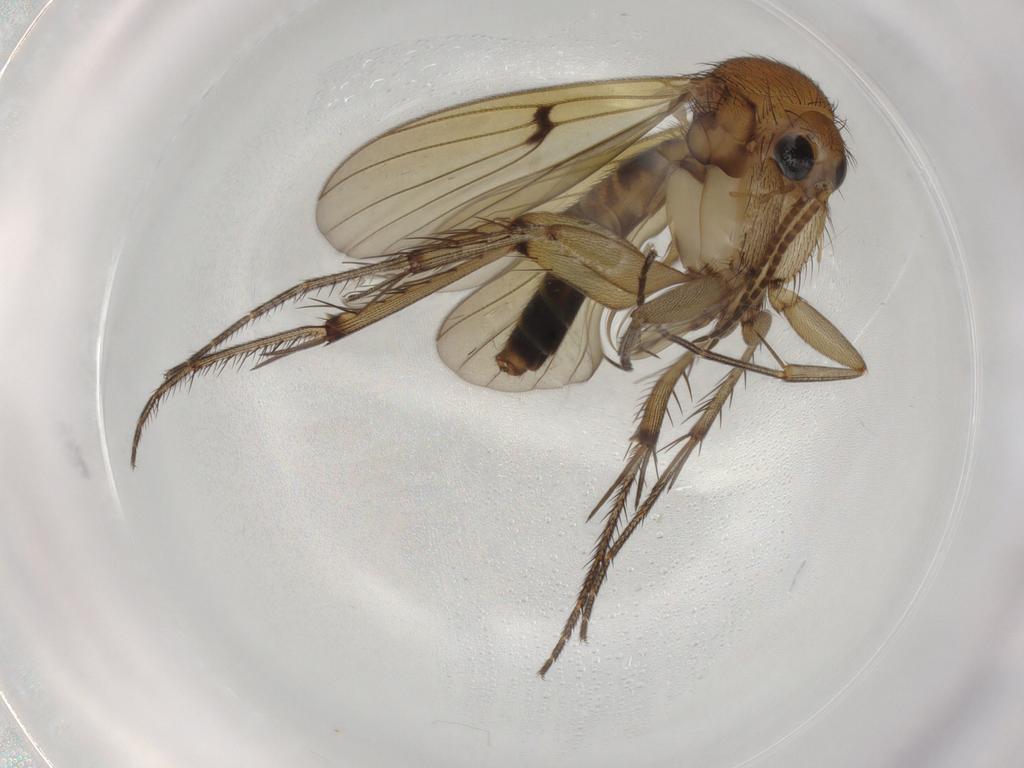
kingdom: Animalia
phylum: Arthropoda
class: Insecta
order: Diptera
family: Mycetophilidae
